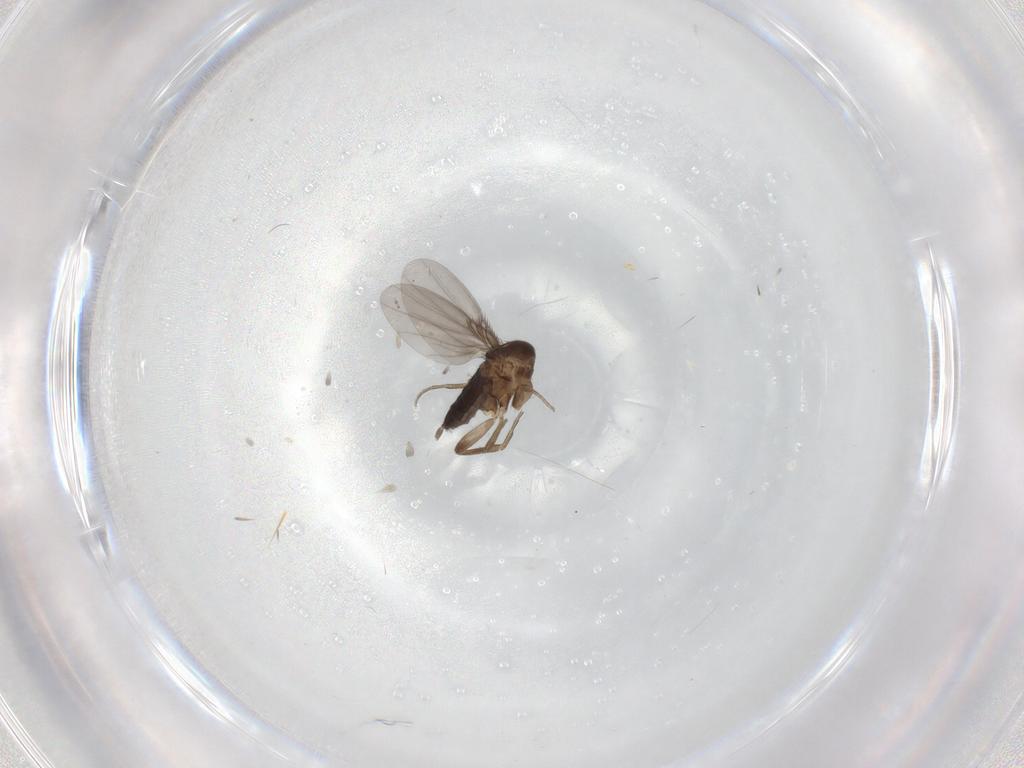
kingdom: Animalia
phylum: Arthropoda
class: Insecta
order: Diptera
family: Phoridae
